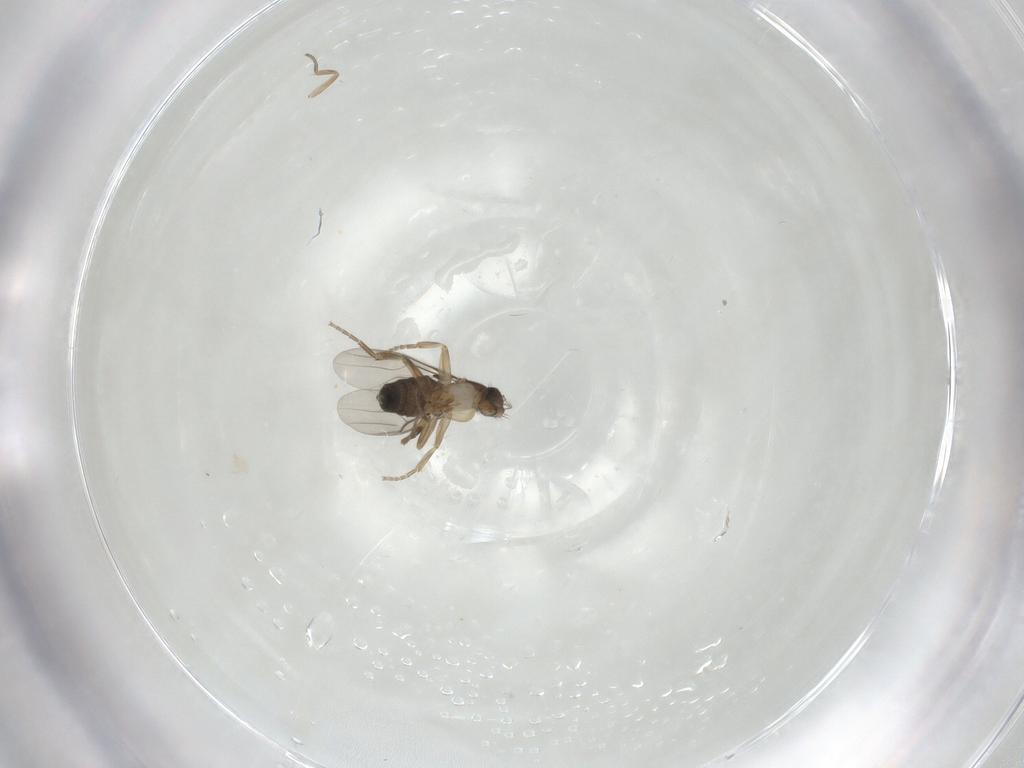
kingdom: Animalia
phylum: Arthropoda
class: Insecta
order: Diptera
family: Phoridae
